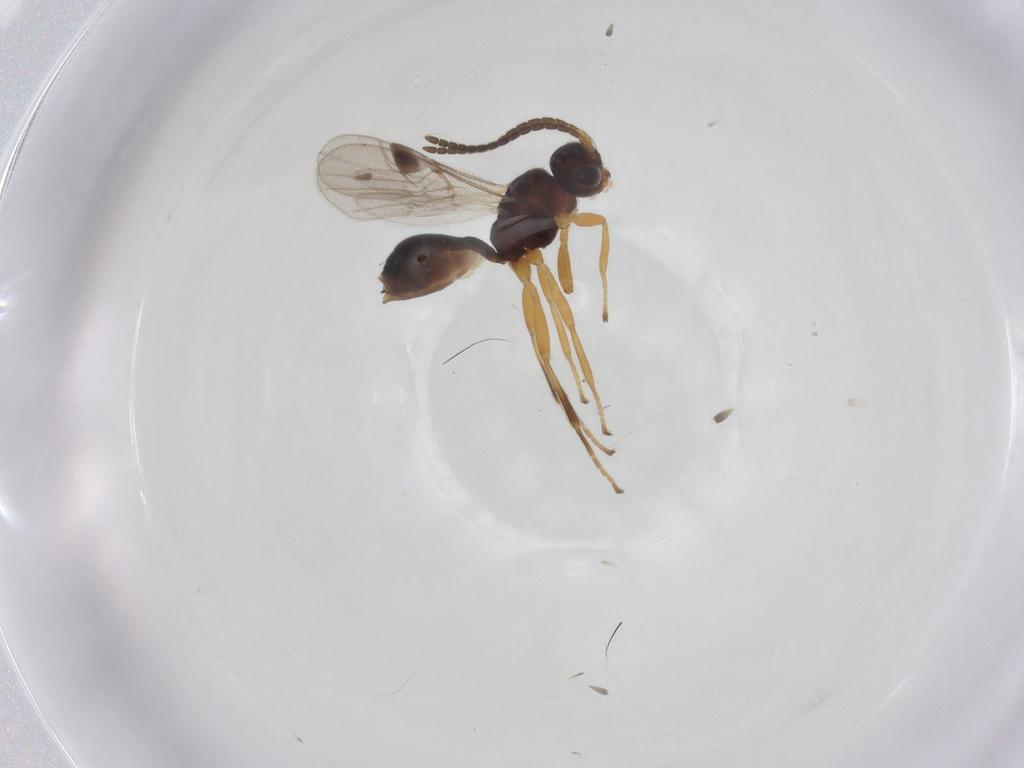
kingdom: Animalia
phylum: Arthropoda
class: Insecta
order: Hymenoptera
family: Braconidae
